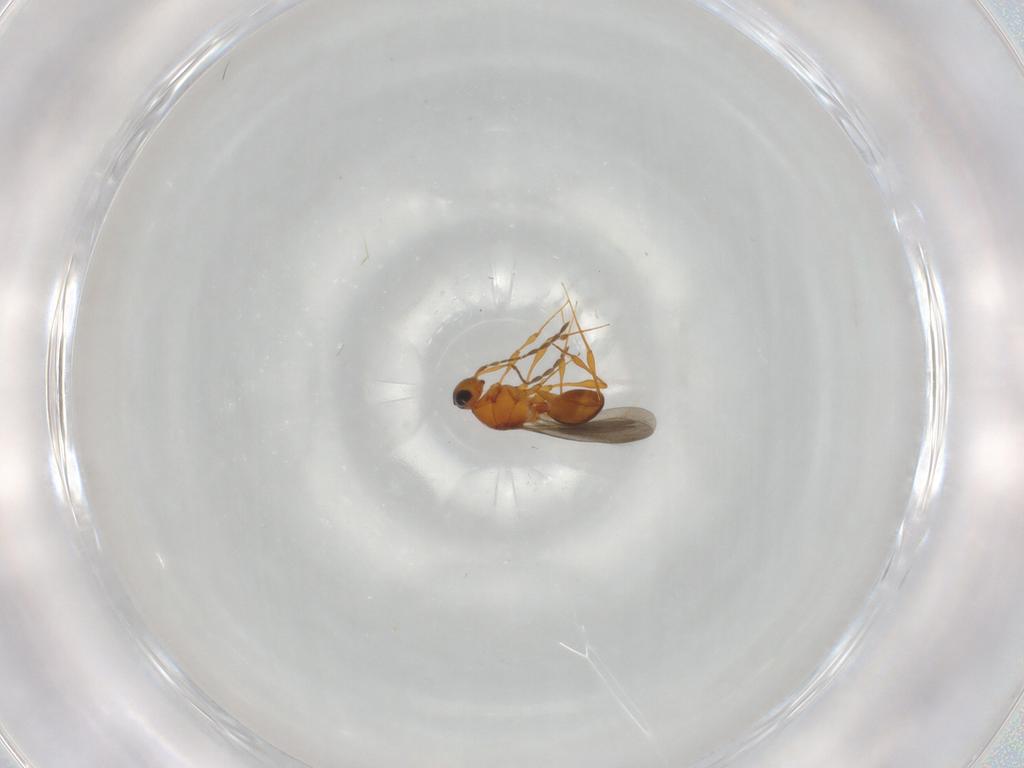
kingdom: Animalia
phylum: Arthropoda
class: Insecta
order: Hymenoptera
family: Platygastridae
